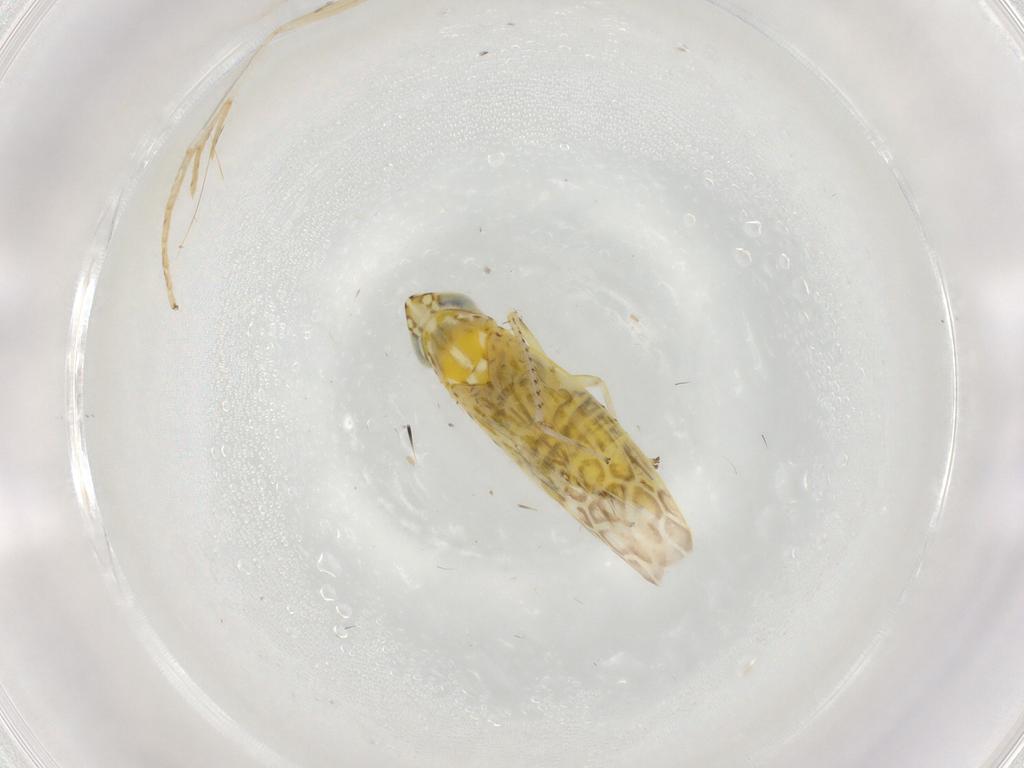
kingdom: Animalia
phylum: Arthropoda
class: Insecta
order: Hemiptera
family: Cicadellidae
